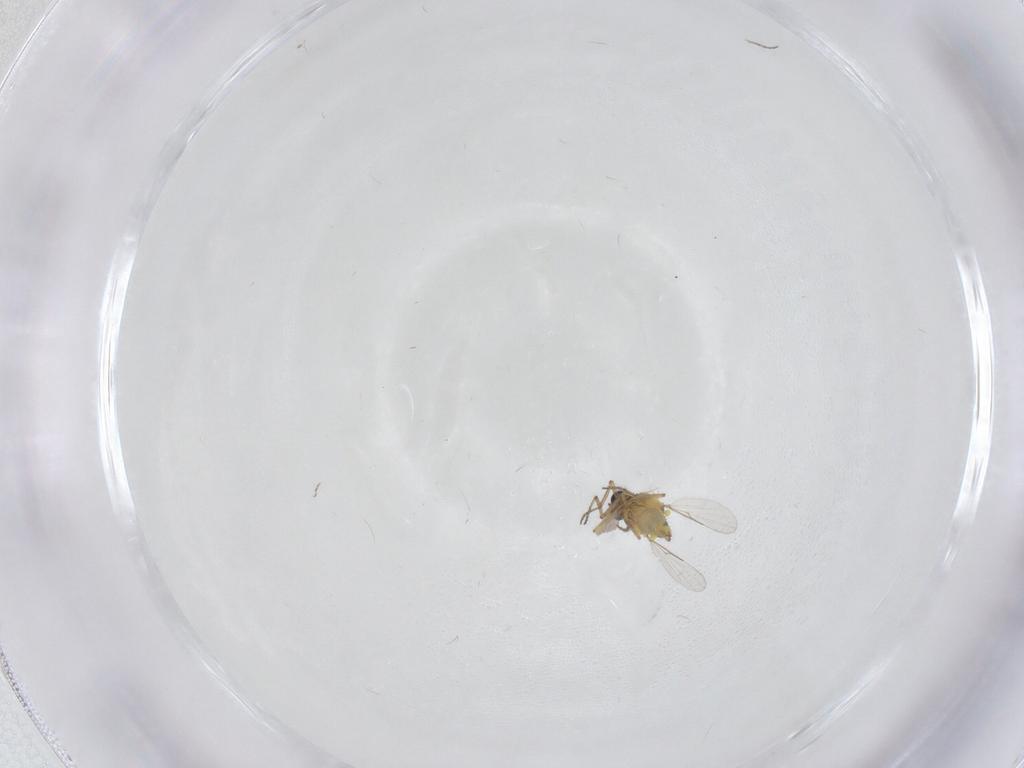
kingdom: Animalia
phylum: Arthropoda
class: Insecta
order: Diptera
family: Ceratopogonidae
